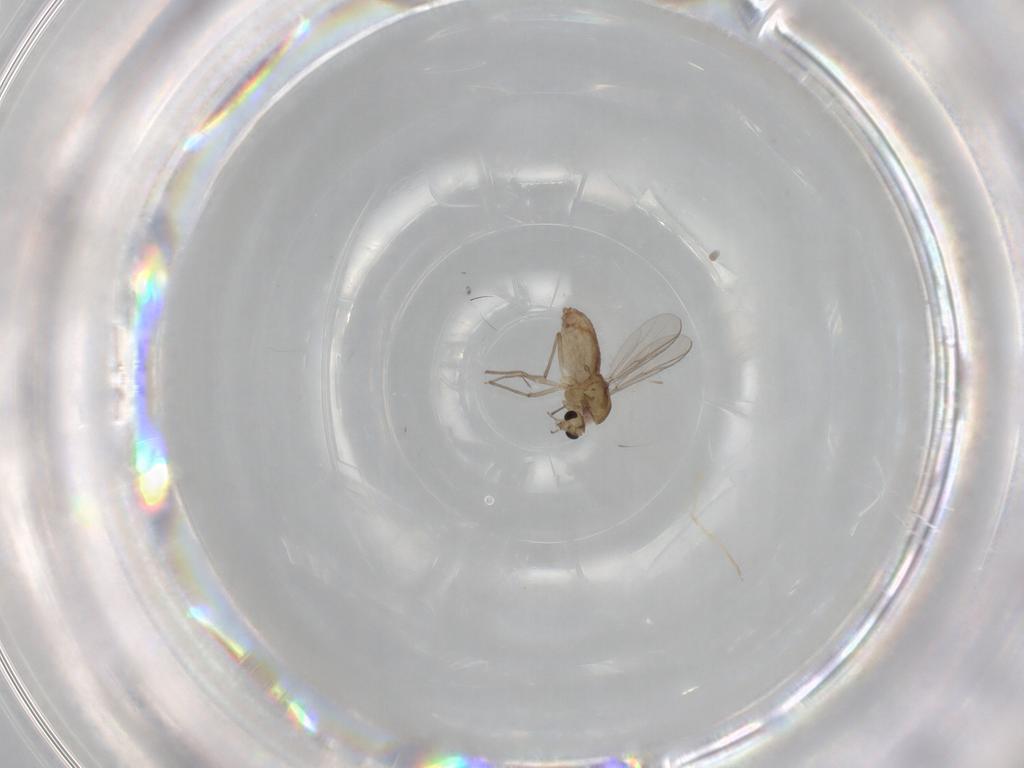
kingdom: Animalia
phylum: Arthropoda
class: Insecta
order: Diptera
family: Chironomidae
